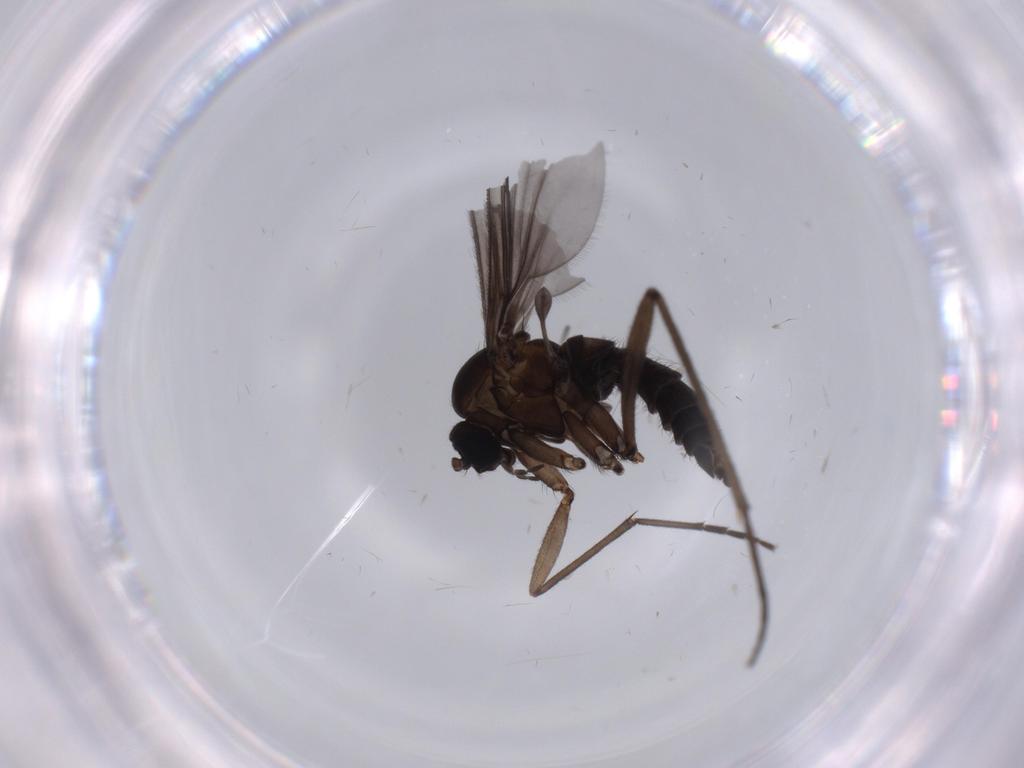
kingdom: Animalia
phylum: Arthropoda
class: Insecta
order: Diptera
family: Sciaridae
